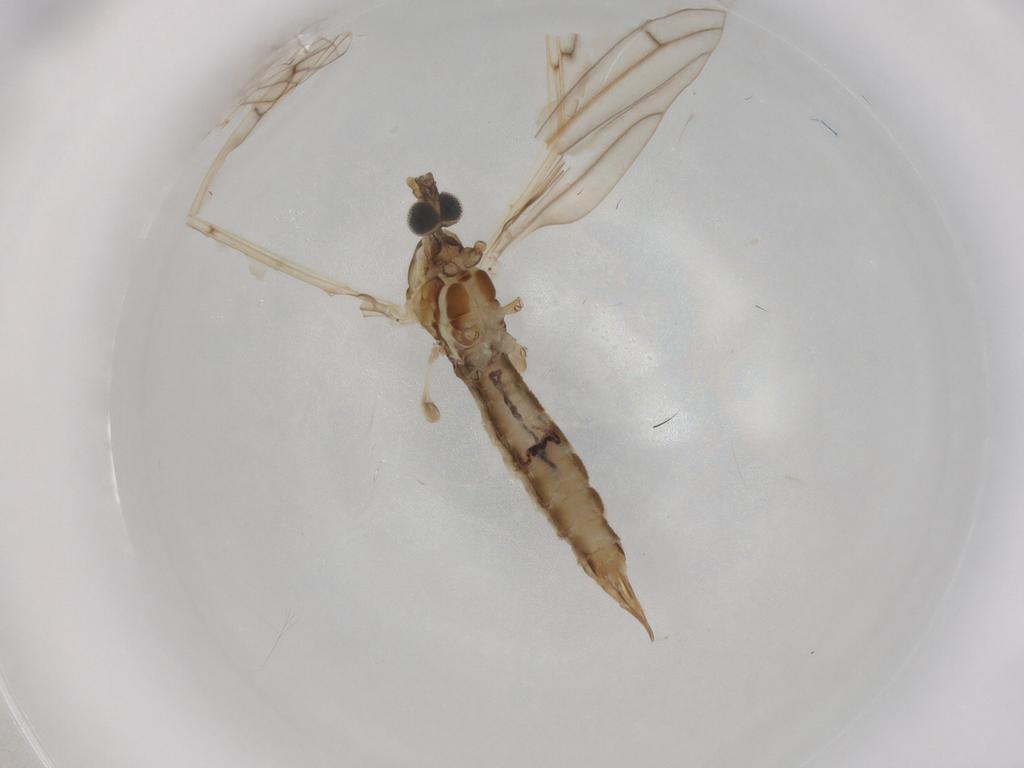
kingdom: Animalia
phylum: Arthropoda
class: Insecta
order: Diptera
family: Limoniidae
